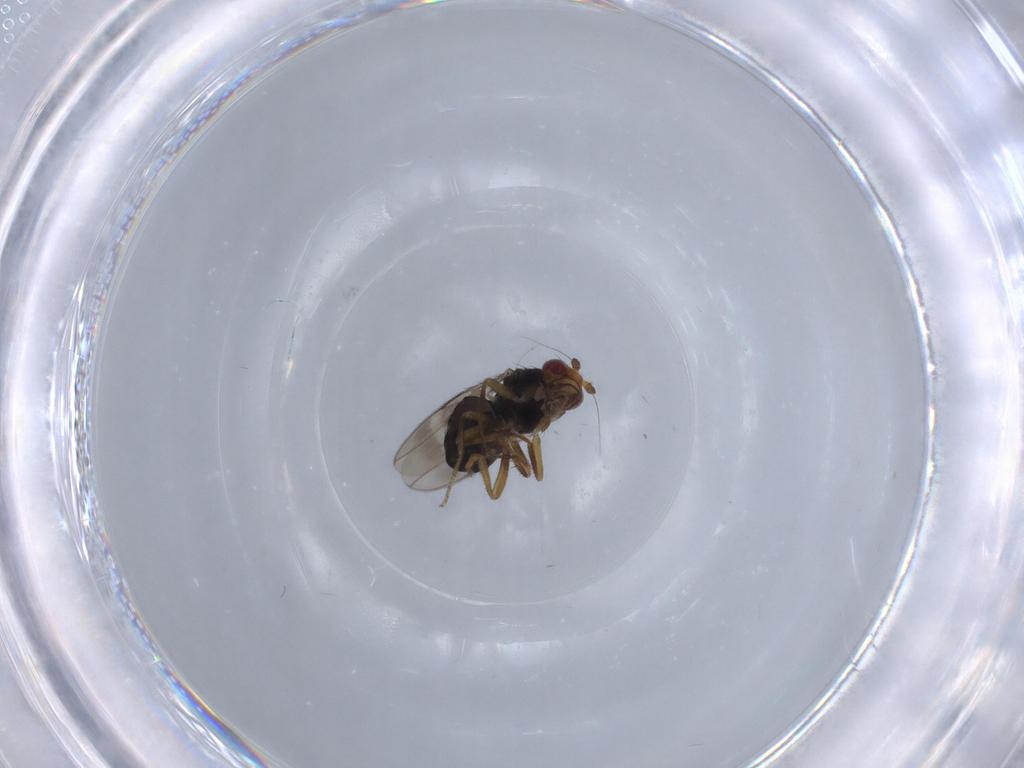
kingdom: Animalia
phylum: Arthropoda
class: Insecta
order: Diptera
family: Sphaeroceridae
